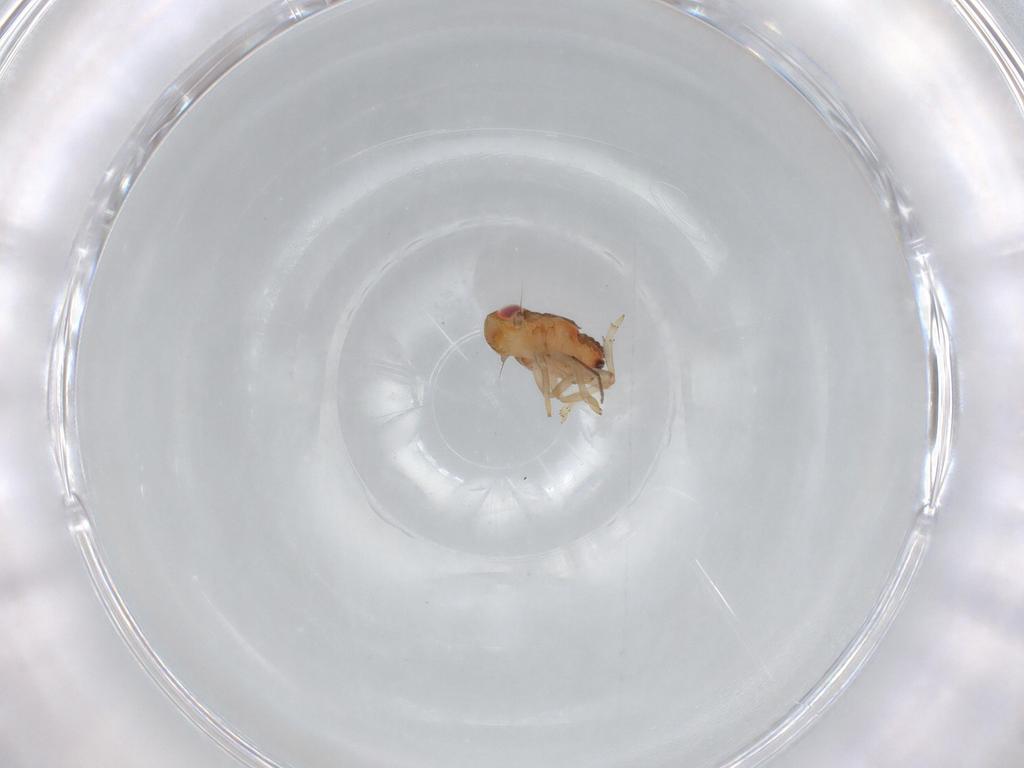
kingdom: Animalia
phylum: Arthropoda
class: Insecta
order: Hemiptera
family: Issidae
